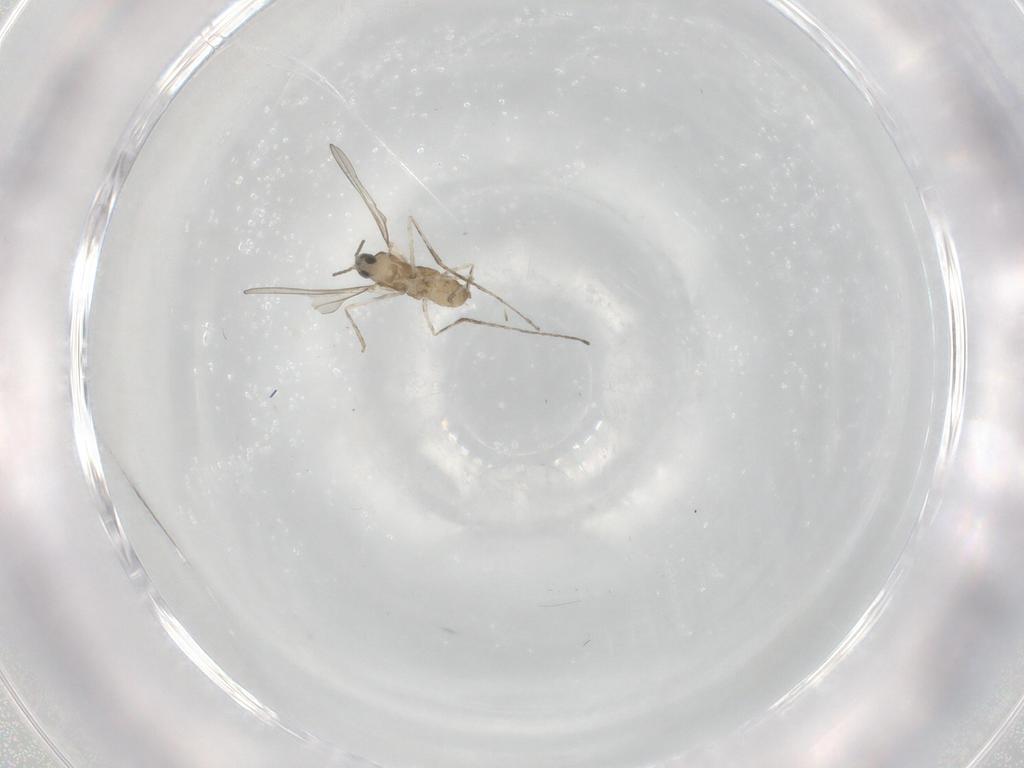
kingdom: Animalia
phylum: Arthropoda
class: Insecta
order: Diptera
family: Cecidomyiidae
